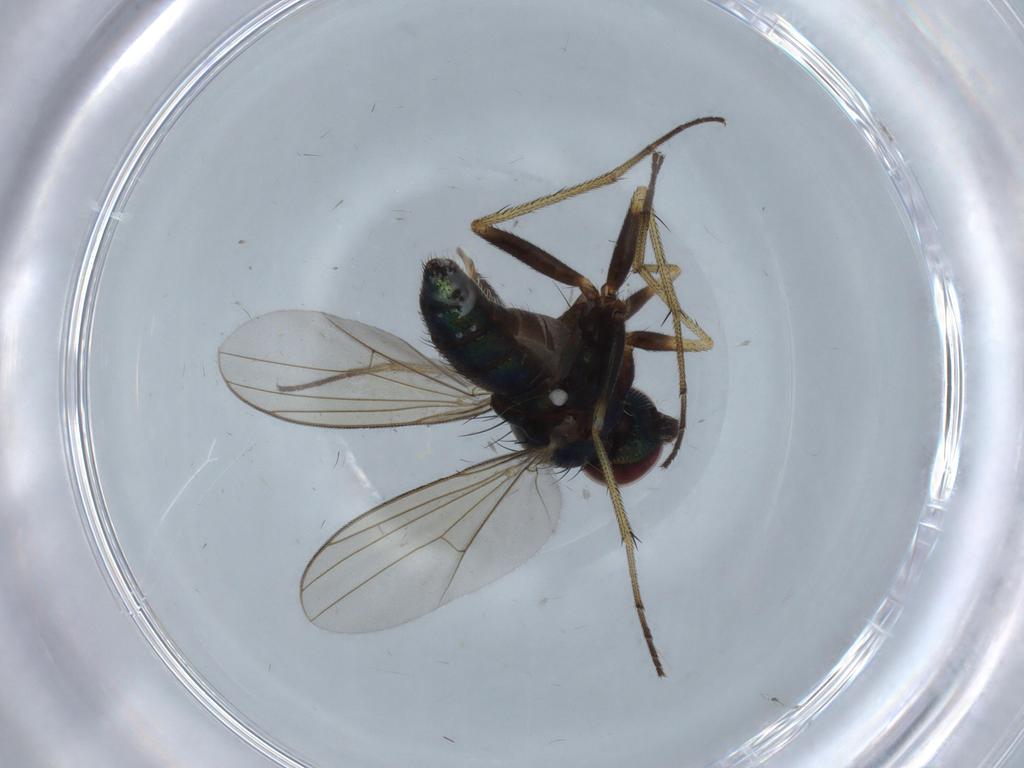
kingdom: Animalia
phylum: Arthropoda
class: Insecta
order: Diptera
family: Dolichopodidae
